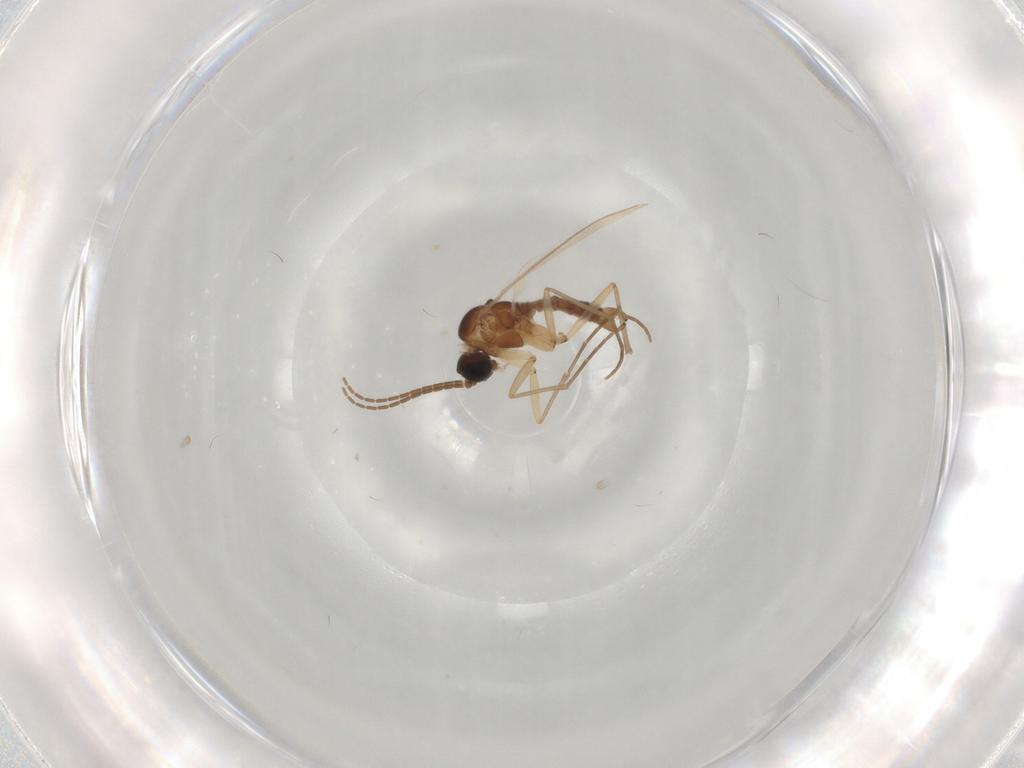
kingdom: Animalia
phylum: Arthropoda
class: Insecta
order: Diptera
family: Sciaridae
